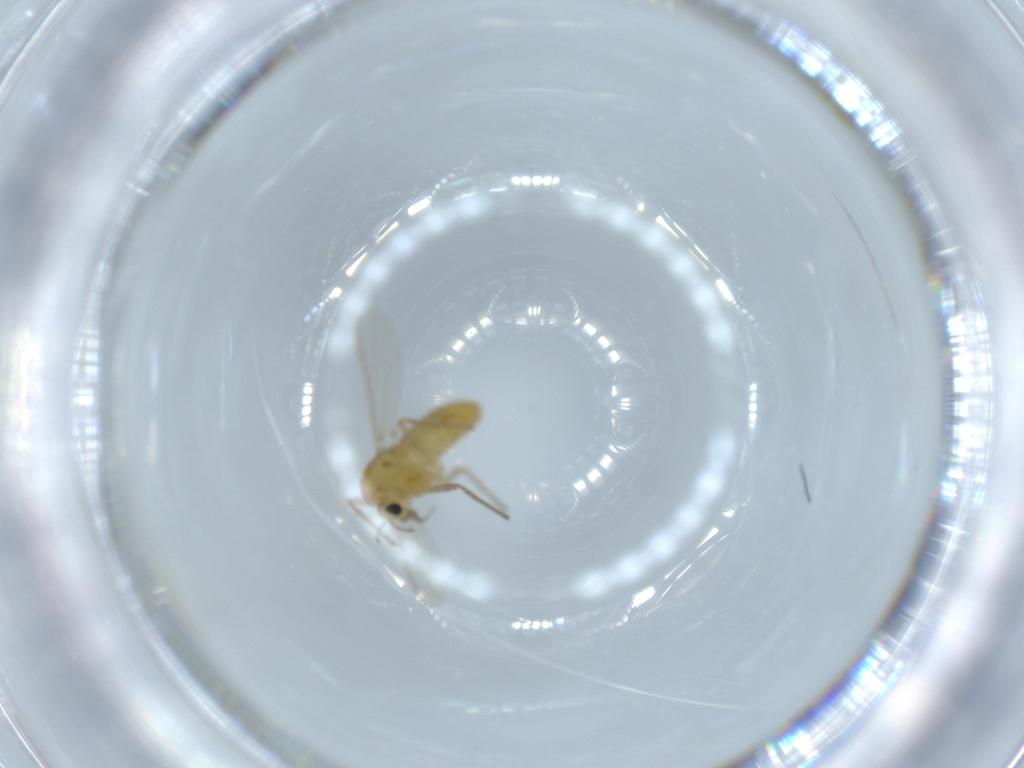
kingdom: Animalia
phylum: Arthropoda
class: Insecta
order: Diptera
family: Chironomidae
